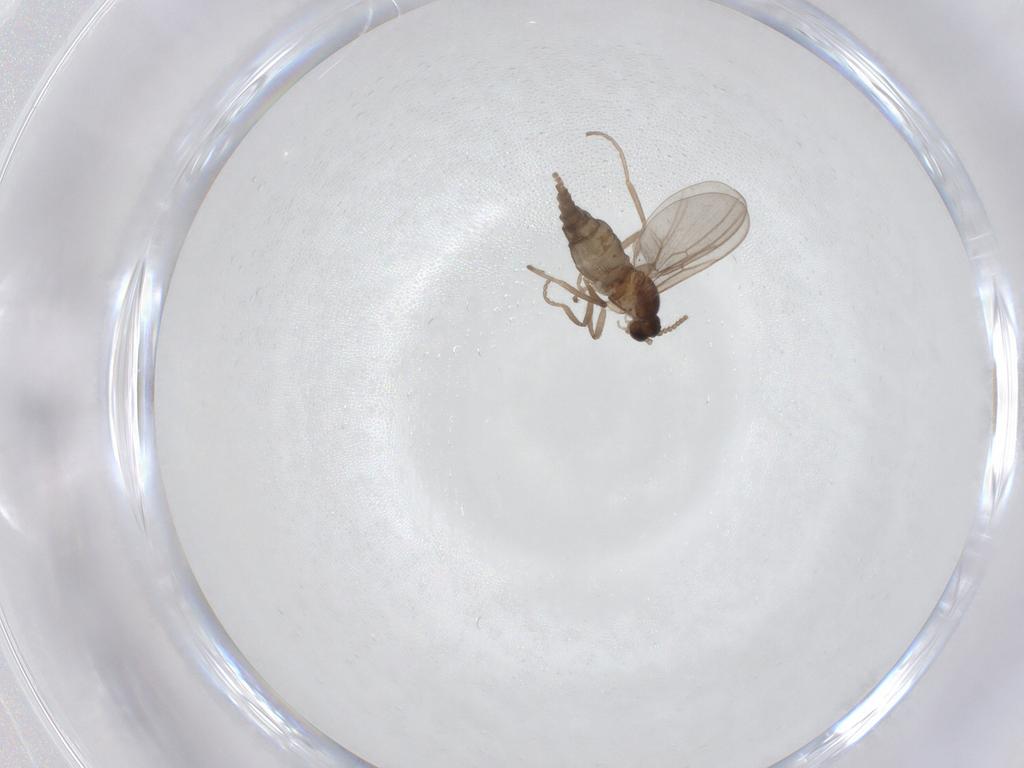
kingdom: Animalia
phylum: Arthropoda
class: Insecta
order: Diptera
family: Cecidomyiidae
